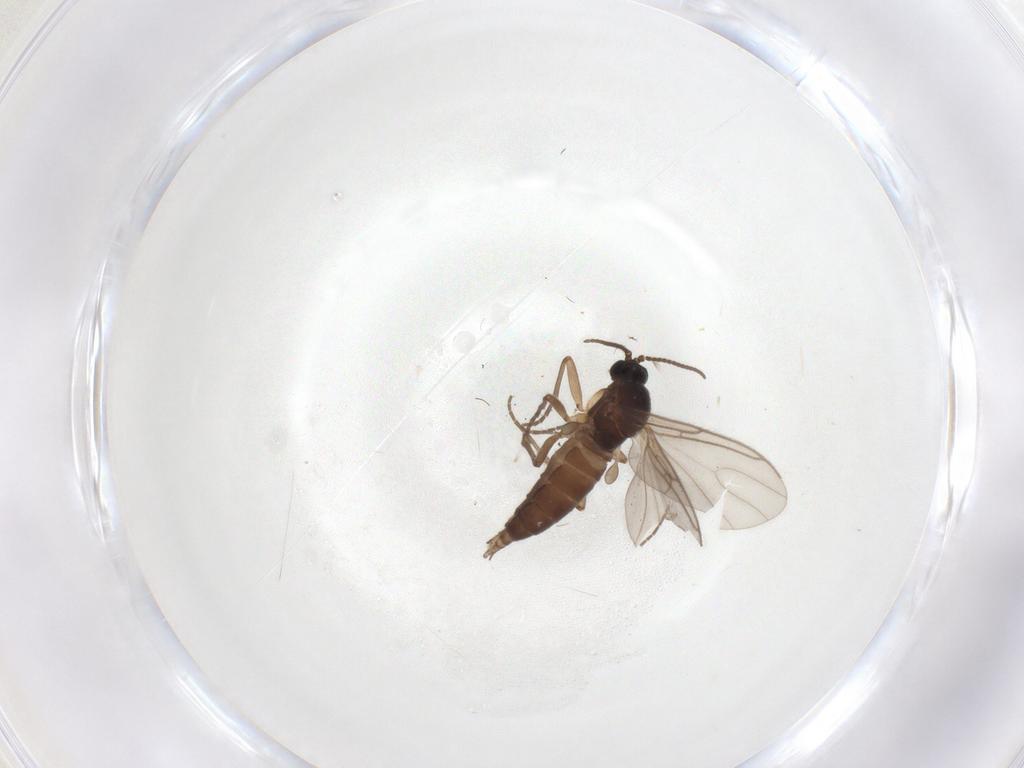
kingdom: Animalia
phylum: Arthropoda
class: Insecta
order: Diptera
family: Sciaridae
